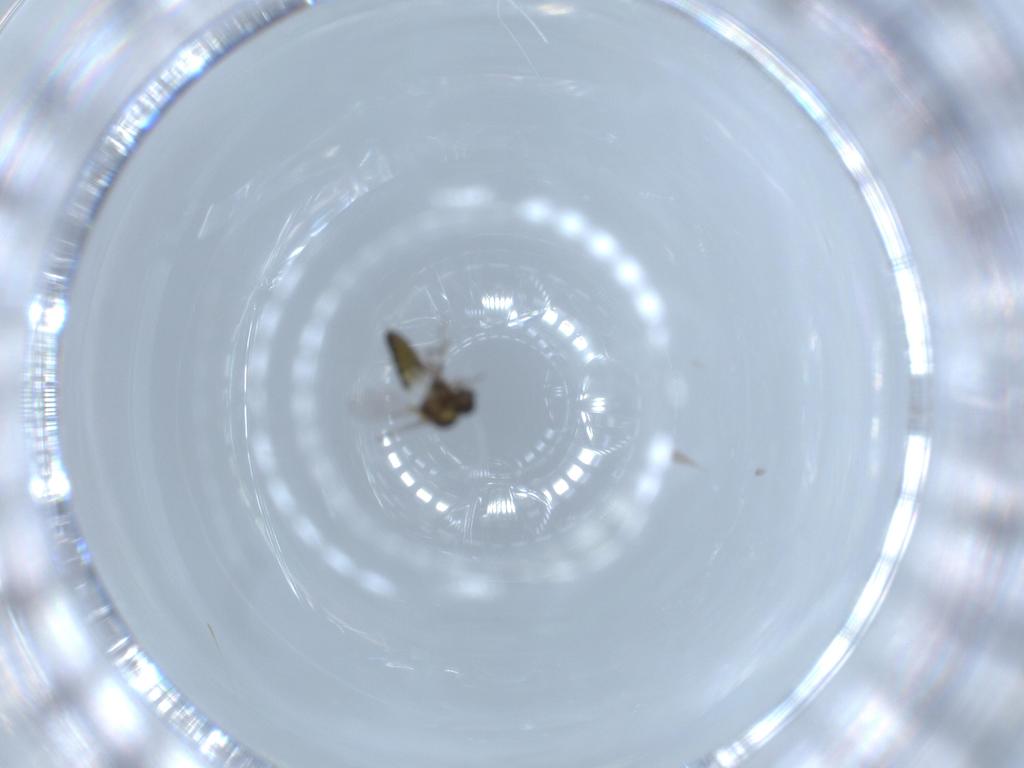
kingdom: Animalia
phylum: Arthropoda
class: Insecta
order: Diptera
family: Ceratopogonidae
